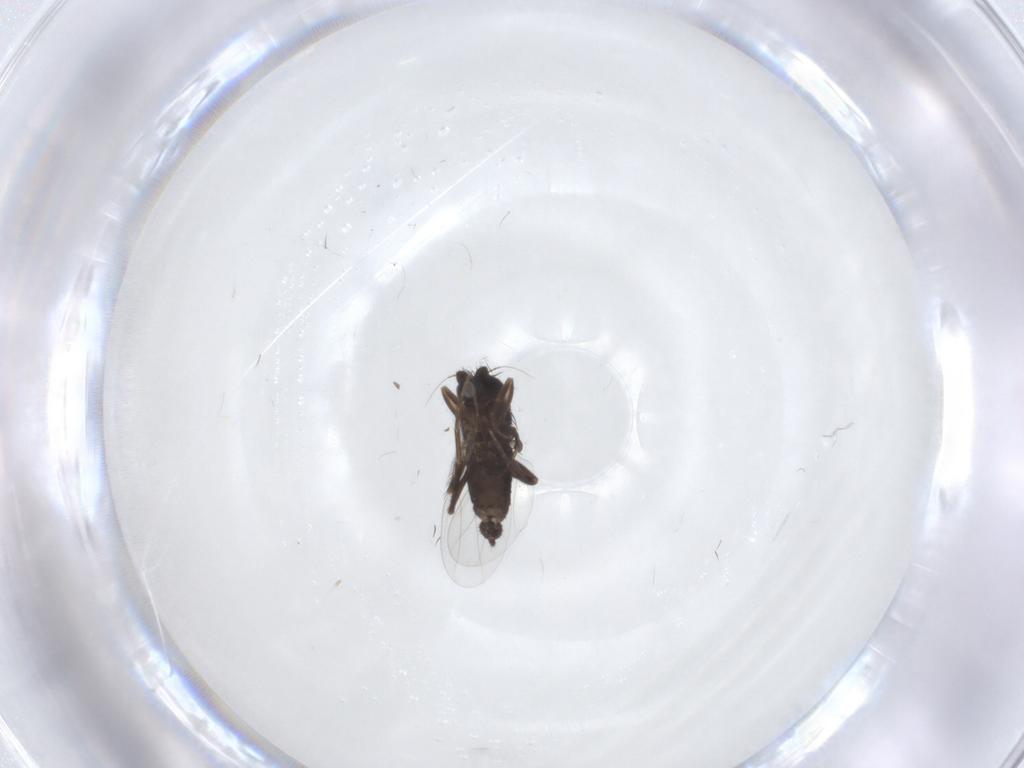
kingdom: Animalia
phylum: Arthropoda
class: Insecta
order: Diptera
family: Phoridae
